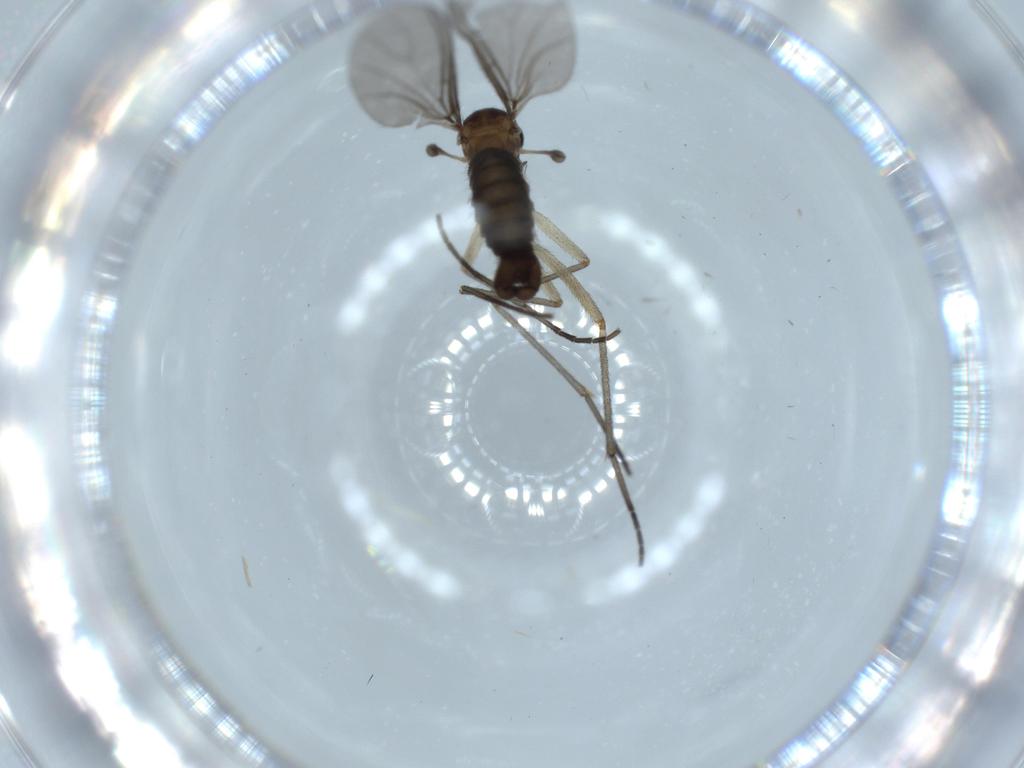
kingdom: Animalia
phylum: Arthropoda
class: Insecta
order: Diptera
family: Sciaridae
